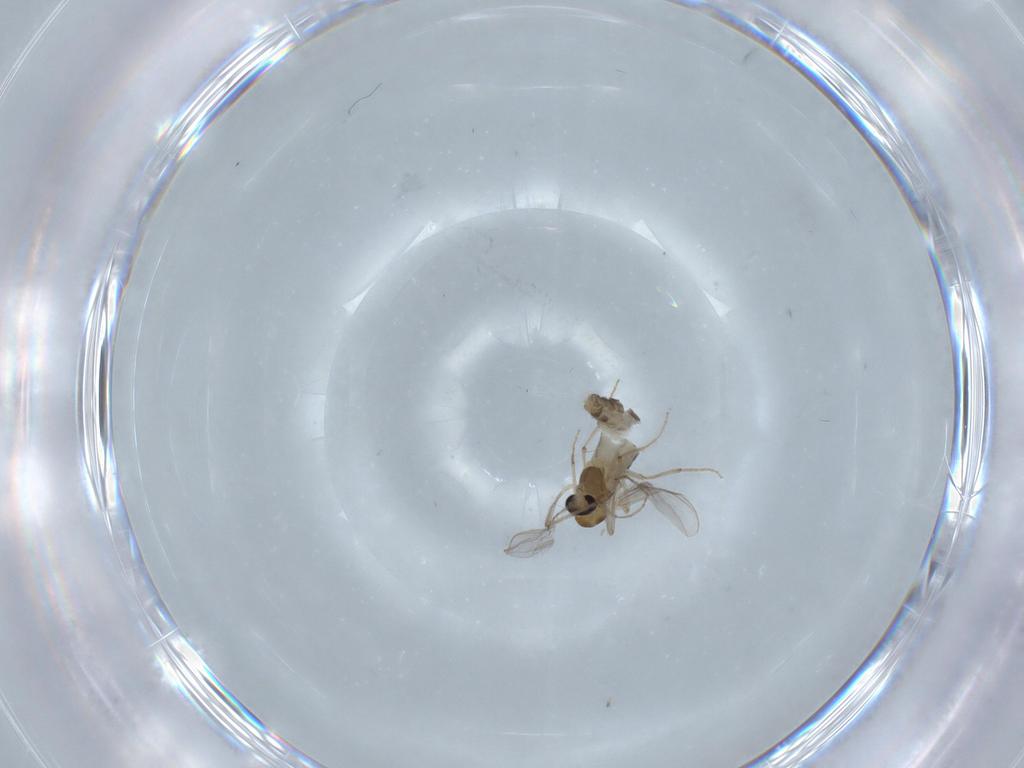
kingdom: Animalia
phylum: Arthropoda
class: Insecta
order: Diptera
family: Chironomidae
